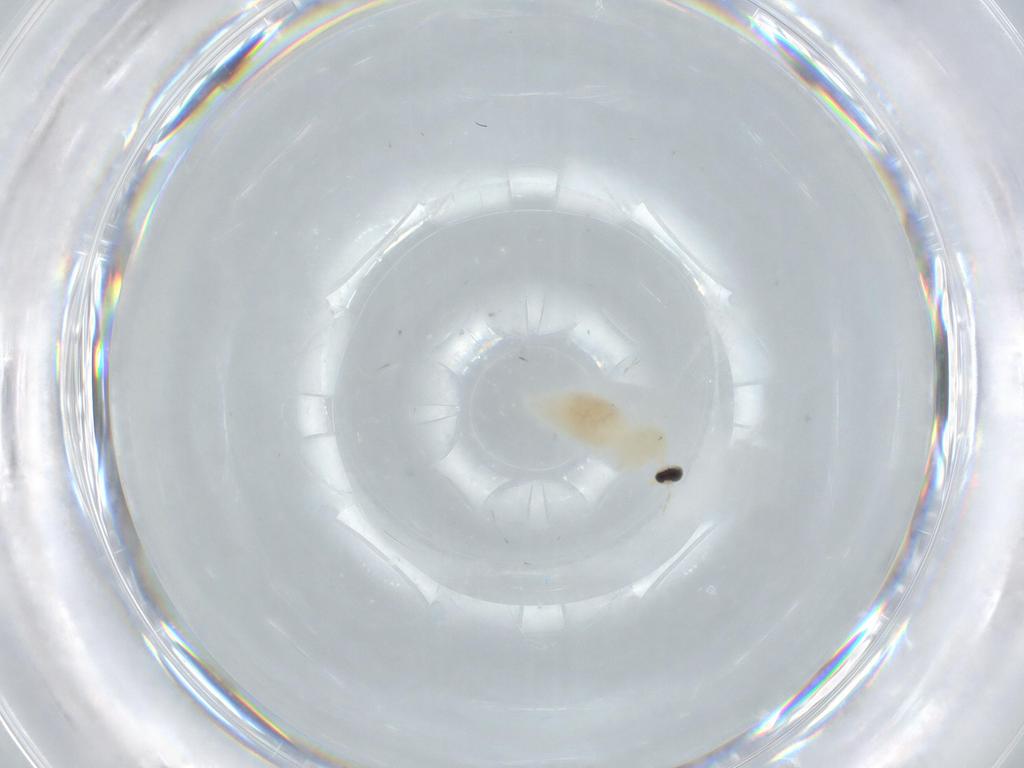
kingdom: Animalia
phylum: Arthropoda
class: Insecta
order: Diptera
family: Cecidomyiidae
